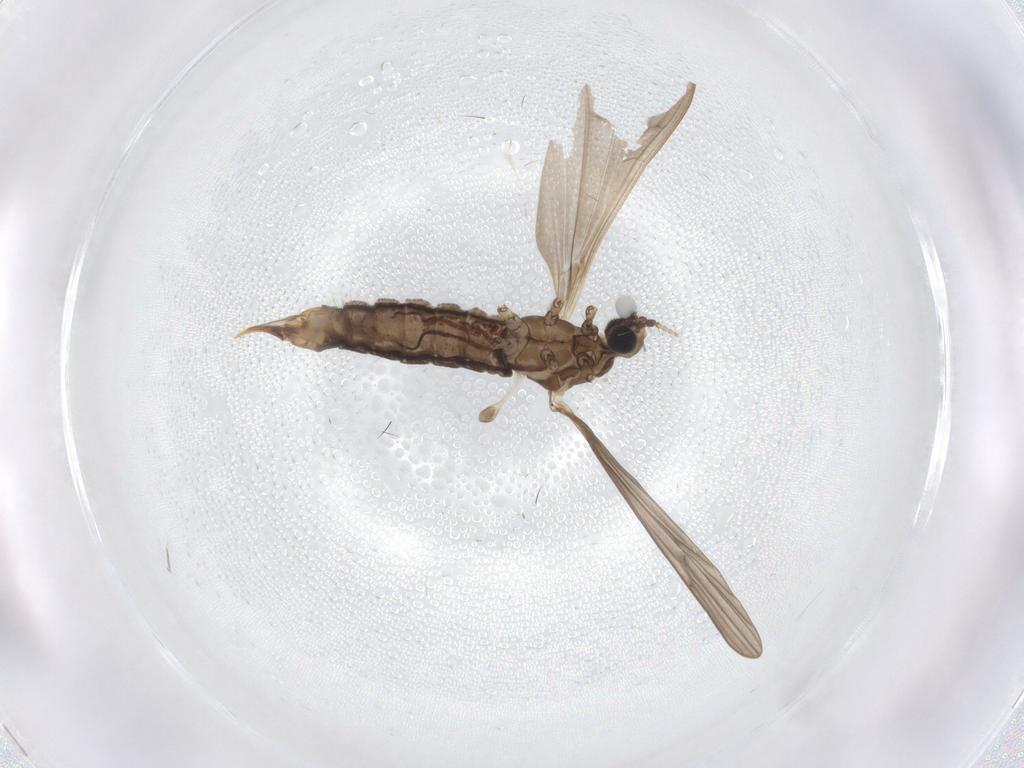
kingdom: Animalia
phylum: Arthropoda
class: Insecta
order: Diptera
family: Limoniidae
